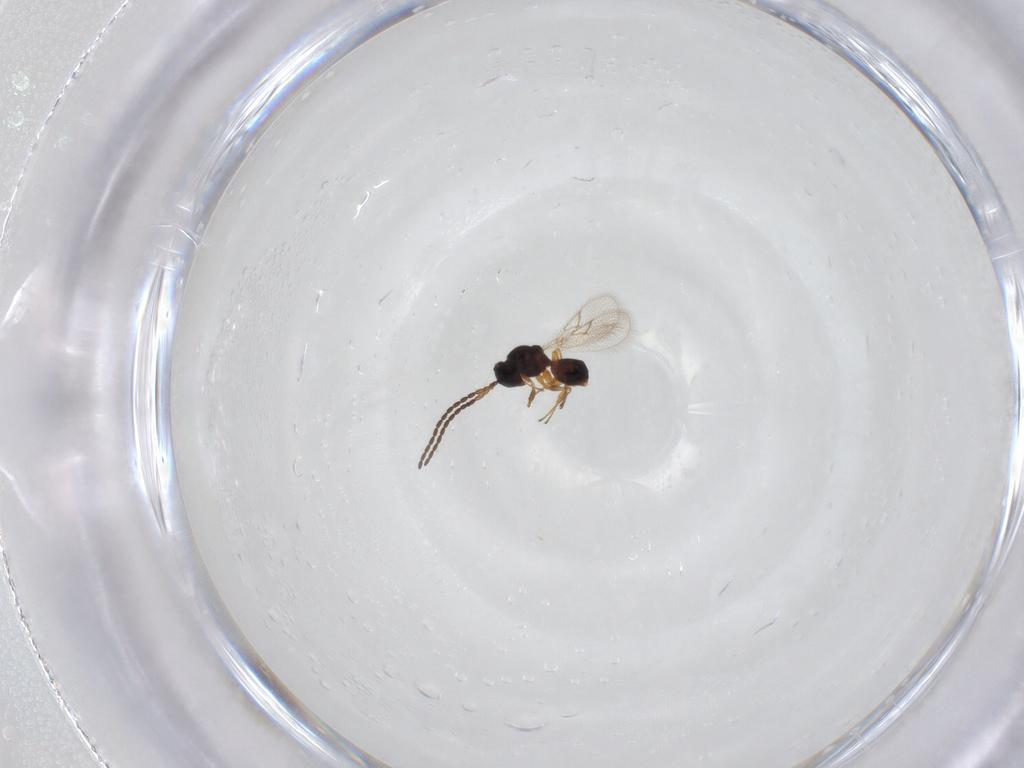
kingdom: Animalia
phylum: Arthropoda
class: Insecta
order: Hymenoptera
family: Figitidae
